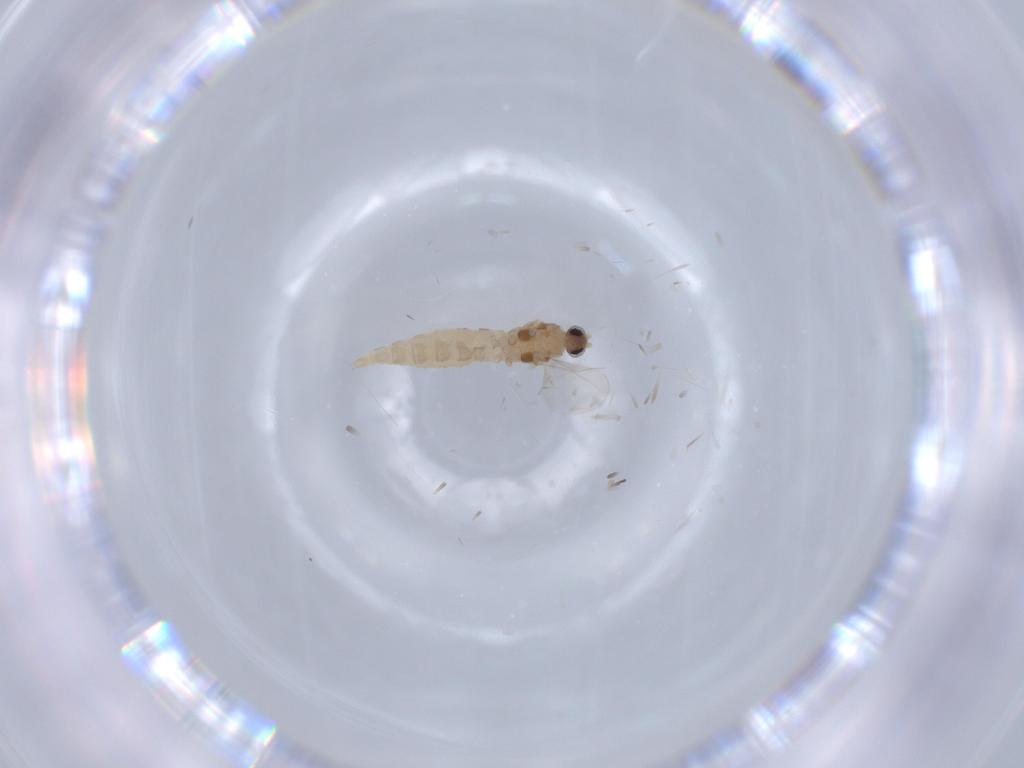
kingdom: Animalia
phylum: Arthropoda
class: Insecta
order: Diptera
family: Cecidomyiidae
